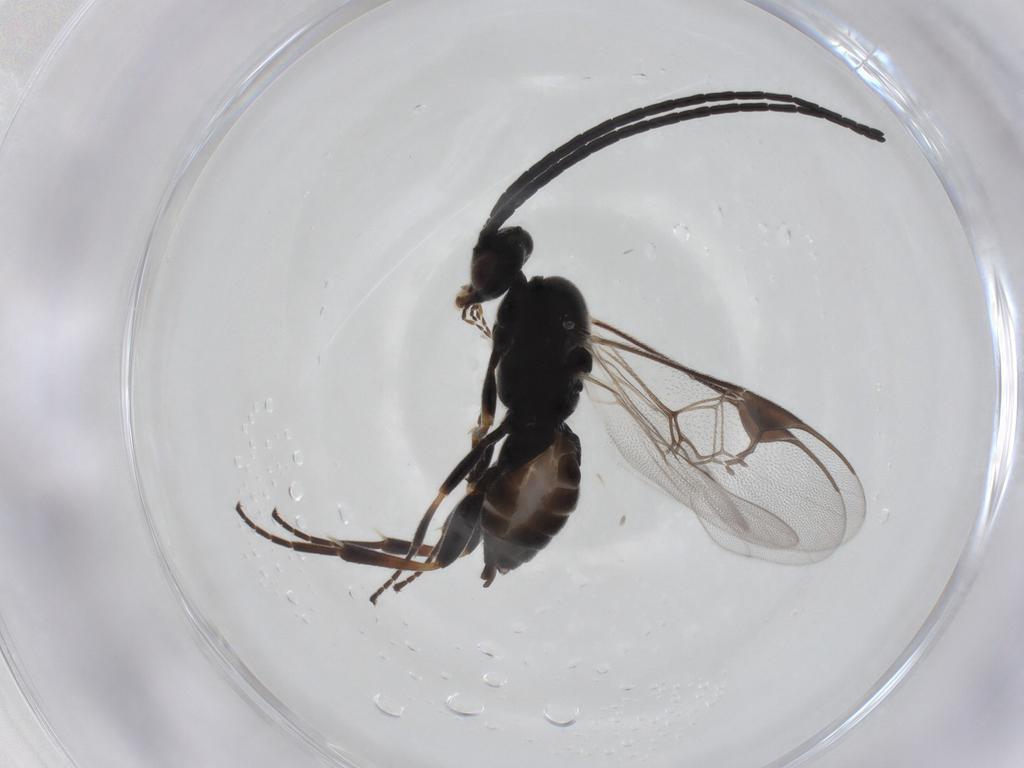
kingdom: Animalia
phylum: Arthropoda
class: Insecta
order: Hymenoptera
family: Braconidae
